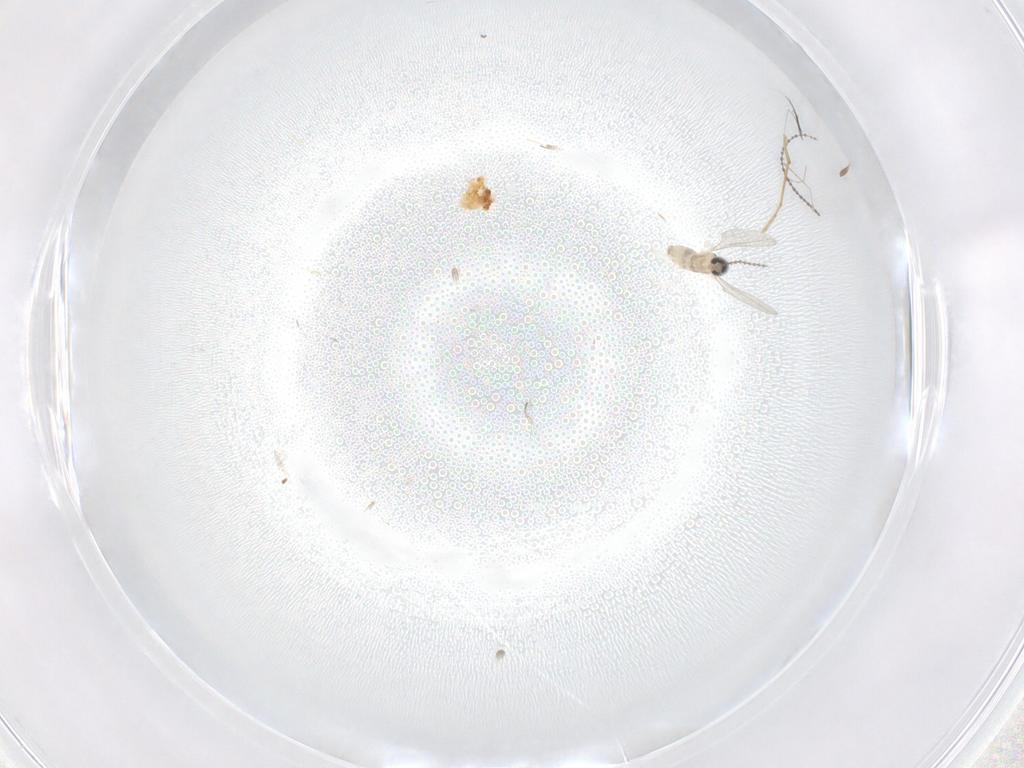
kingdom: Animalia
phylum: Arthropoda
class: Insecta
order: Diptera
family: Cecidomyiidae
